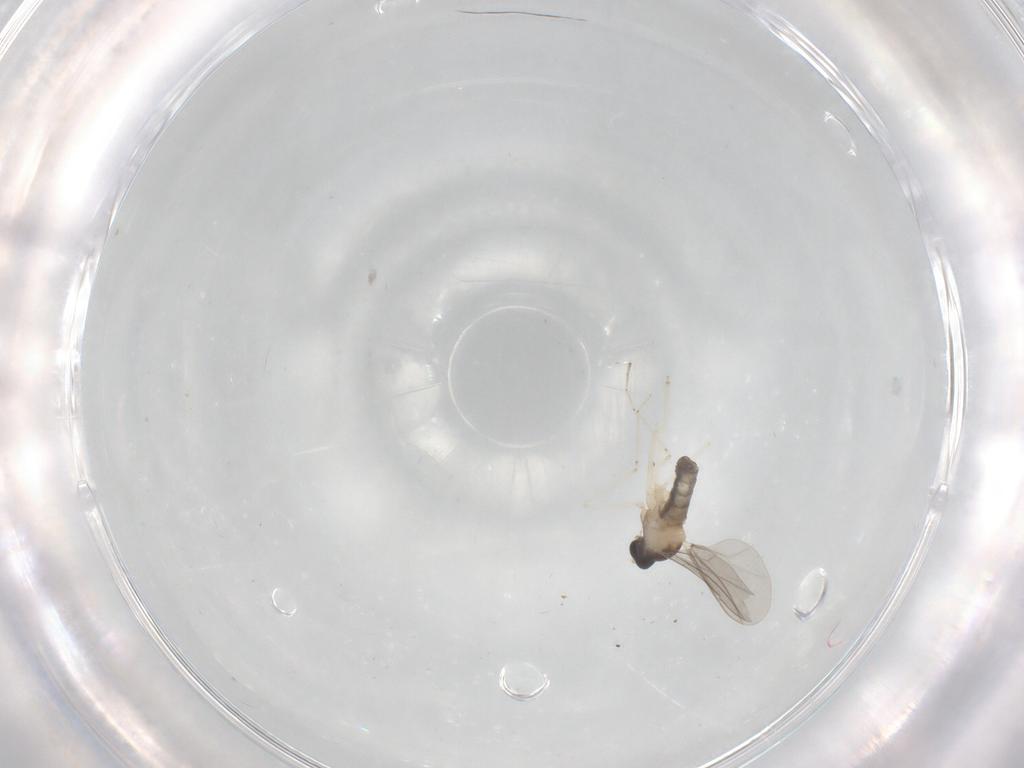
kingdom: Animalia
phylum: Arthropoda
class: Insecta
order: Diptera
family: Cecidomyiidae
